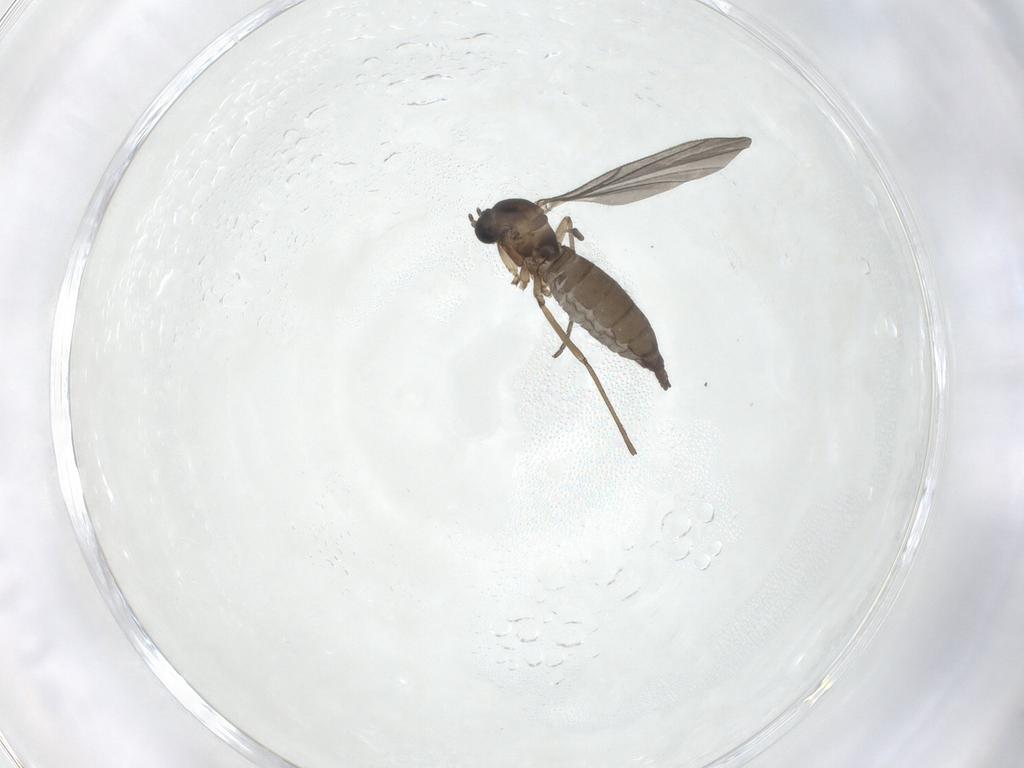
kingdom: Animalia
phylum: Arthropoda
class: Insecta
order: Diptera
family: Sciaridae
